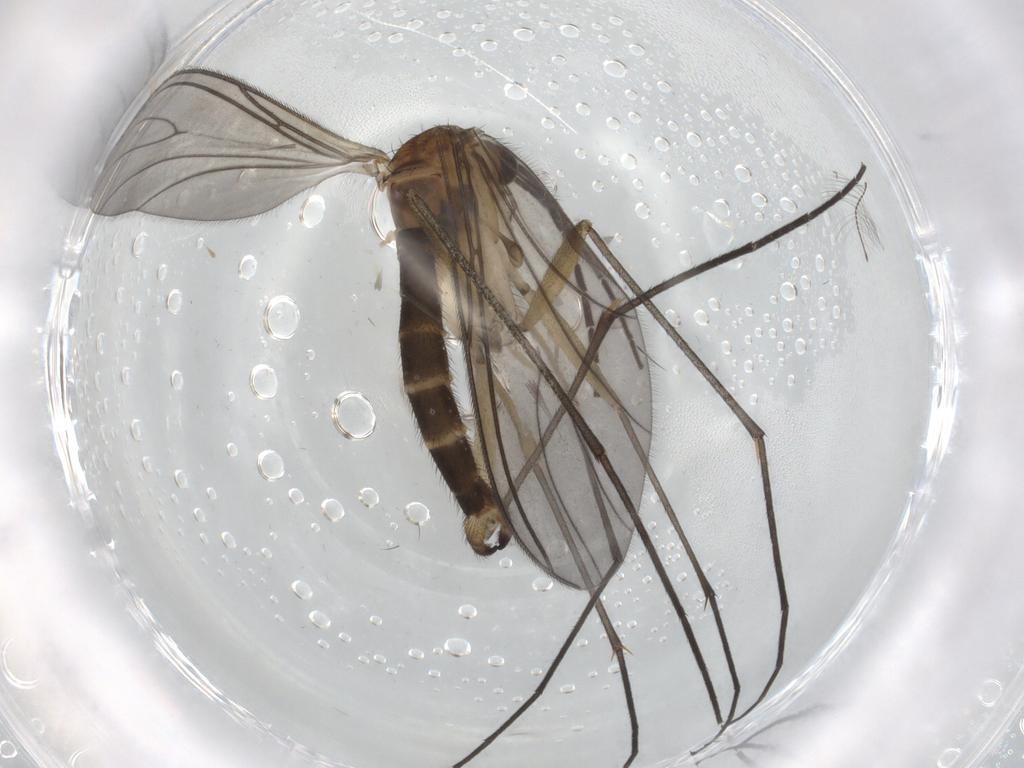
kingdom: Animalia
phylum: Arthropoda
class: Insecta
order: Diptera
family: Sciaridae
